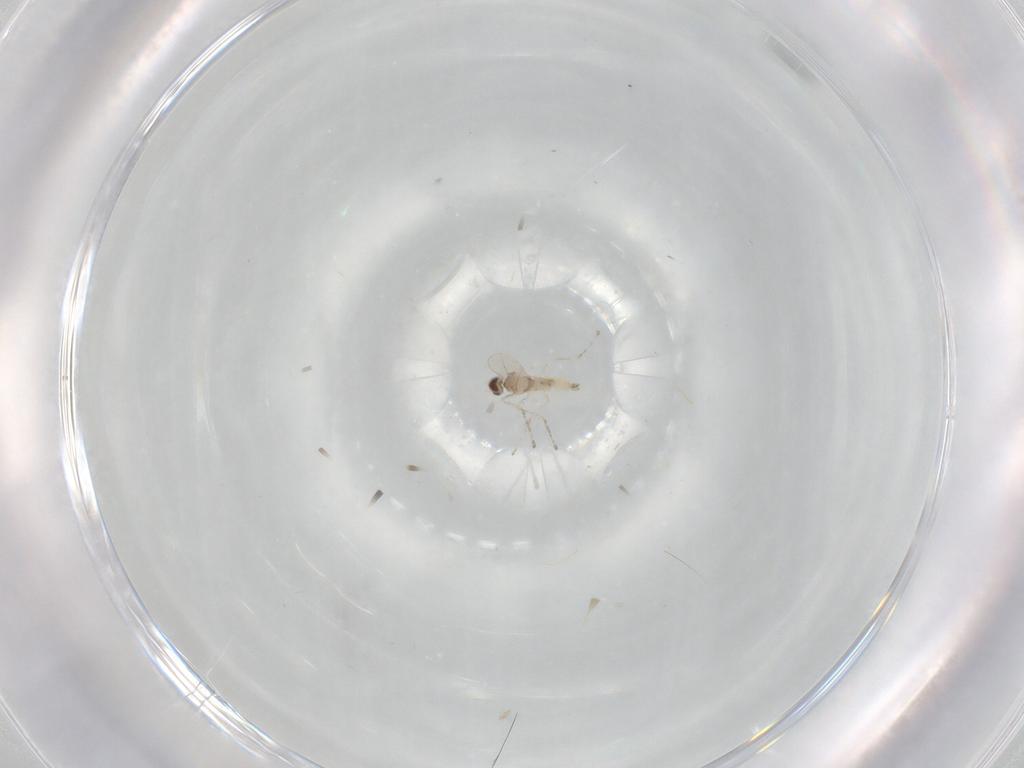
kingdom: Animalia
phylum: Arthropoda
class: Insecta
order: Diptera
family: Cecidomyiidae
